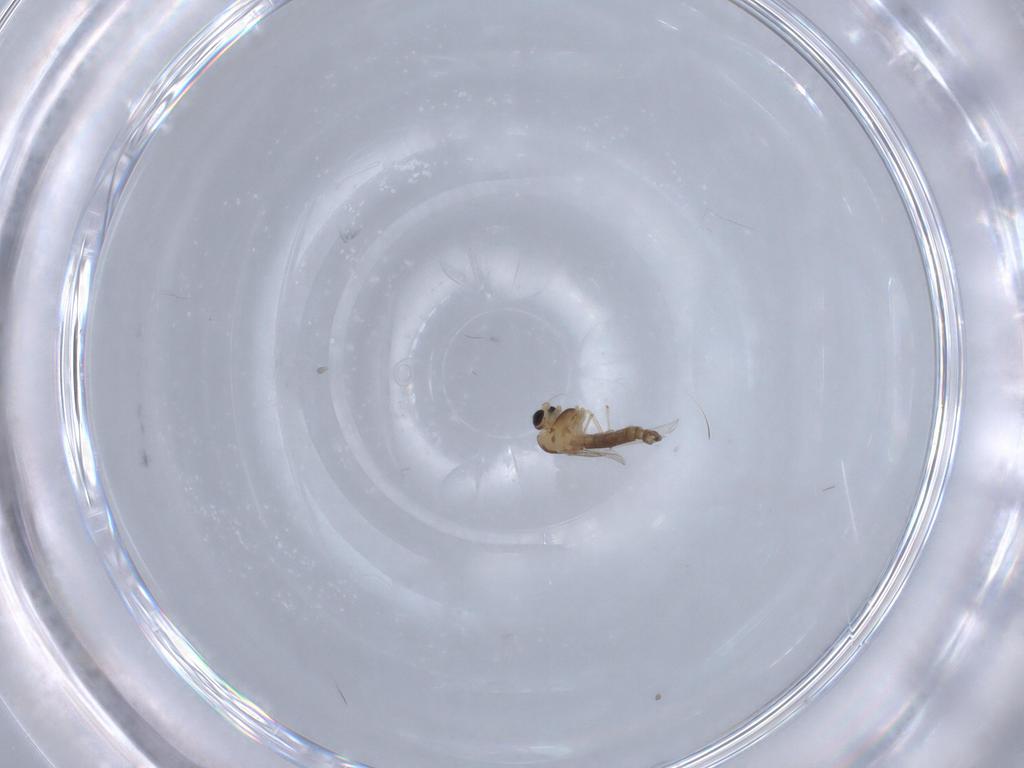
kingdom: Animalia
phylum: Arthropoda
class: Insecta
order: Diptera
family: Chironomidae
